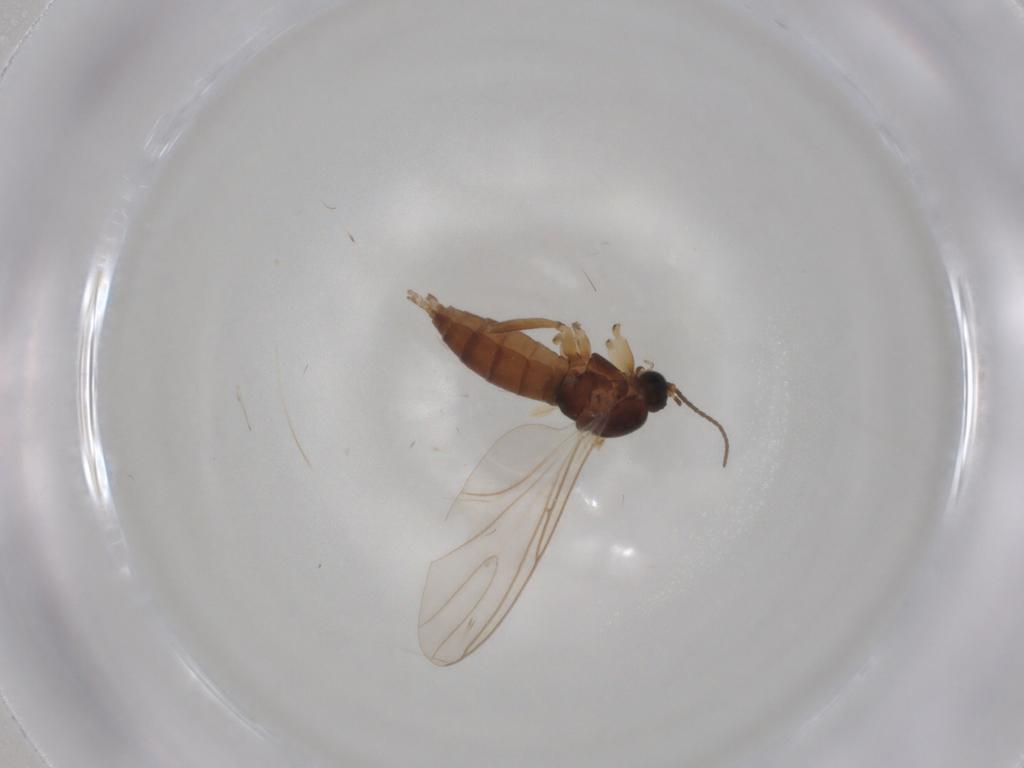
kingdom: Animalia
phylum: Arthropoda
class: Insecta
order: Diptera
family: Sciaridae
